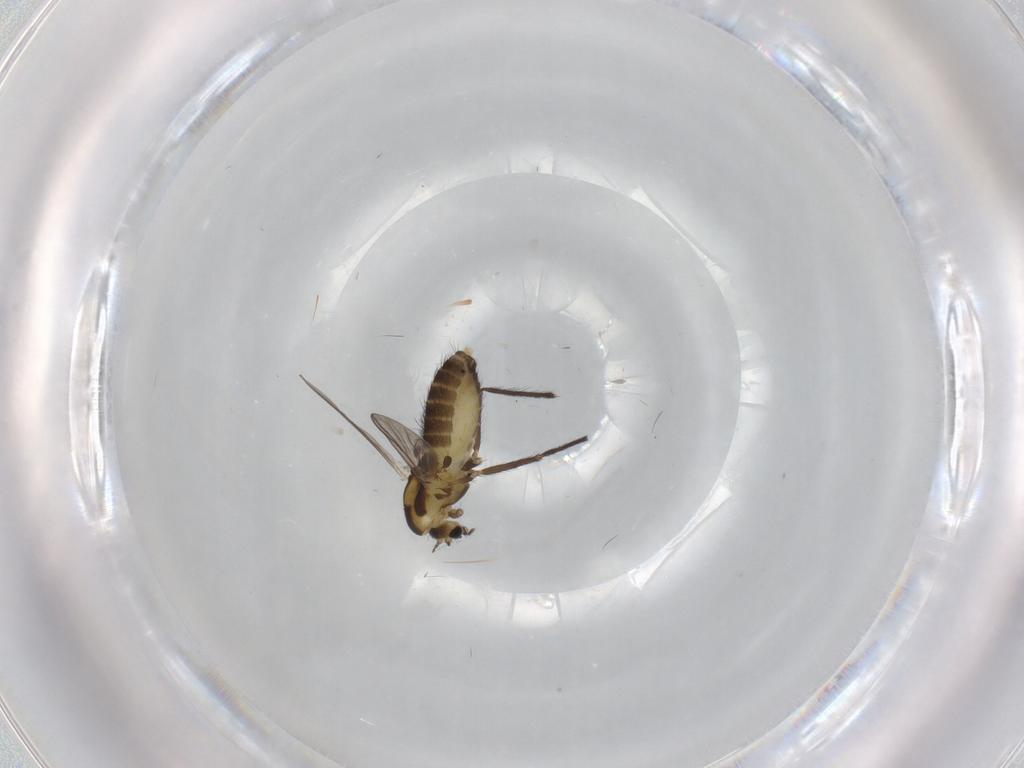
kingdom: Animalia
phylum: Arthropoda
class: Insecta
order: Diptera
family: Chironomidae
